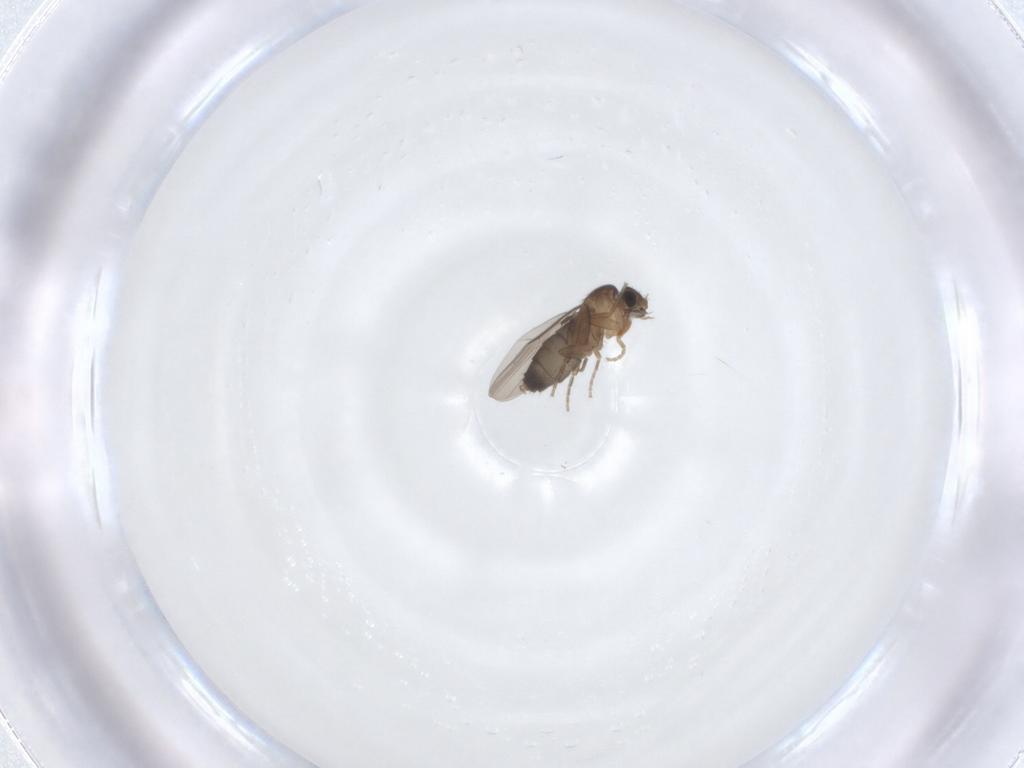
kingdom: Animalia
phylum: Arthropoda
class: Insecta
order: Diptera
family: Phoridae
